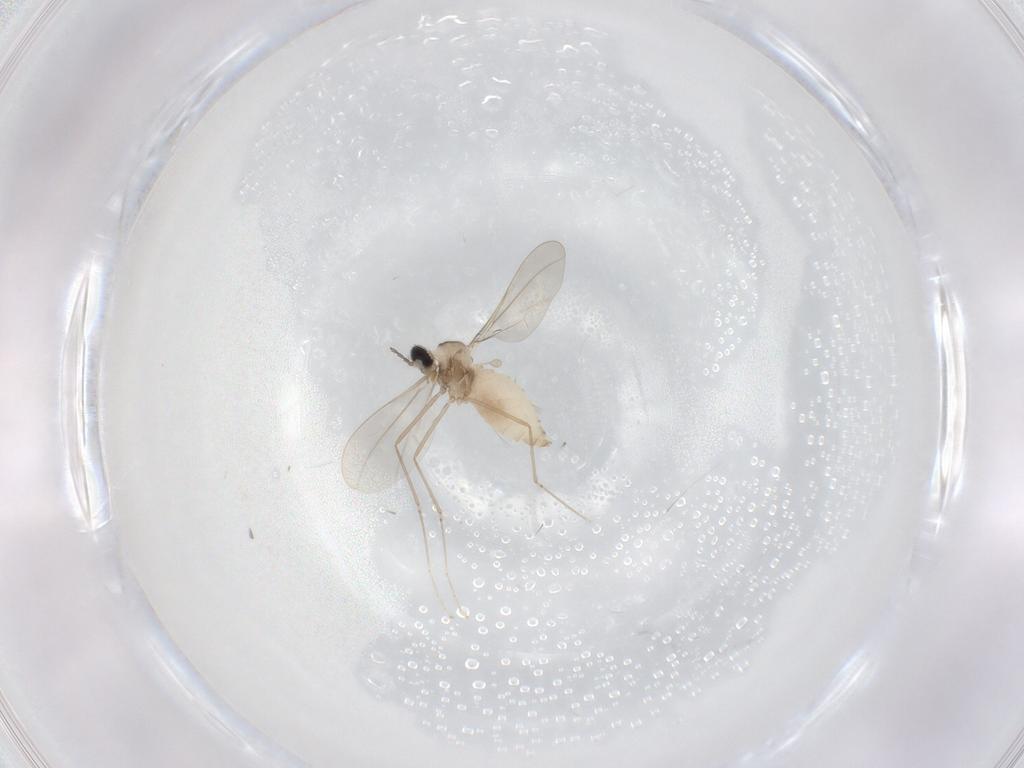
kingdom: Animalia
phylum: Arthropoda
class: Insecta
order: Diptera
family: Cecidomyiidae
